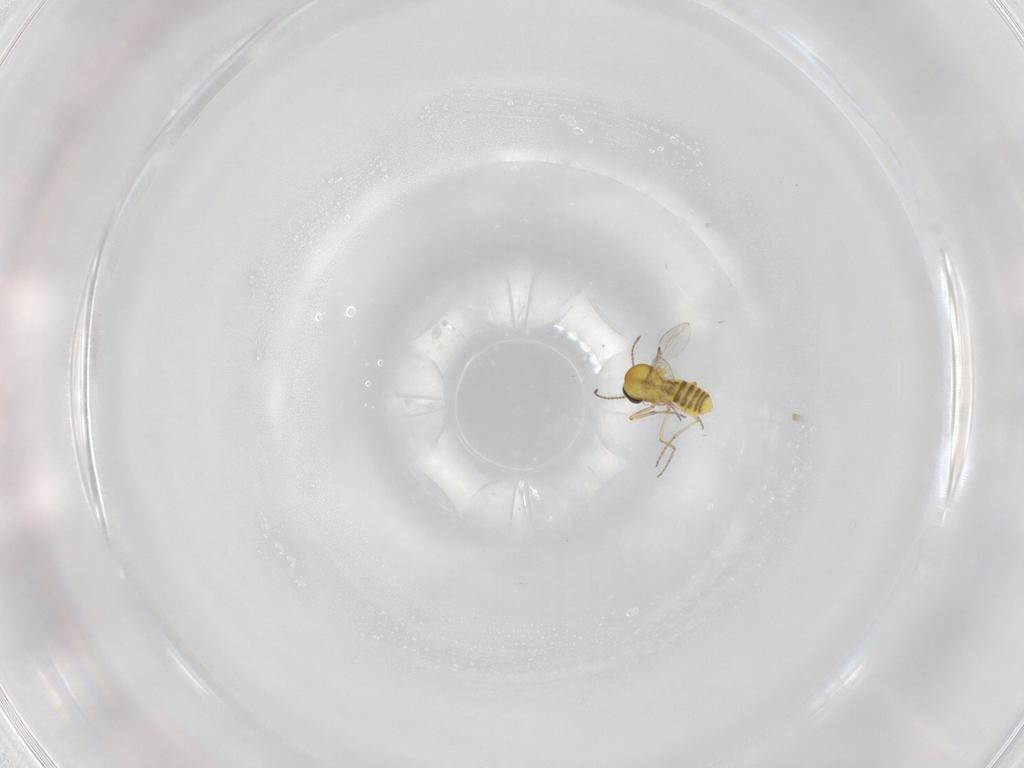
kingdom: Animalia
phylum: Arthropoda
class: Insecta
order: Diptera
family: Ceratopogonidae
